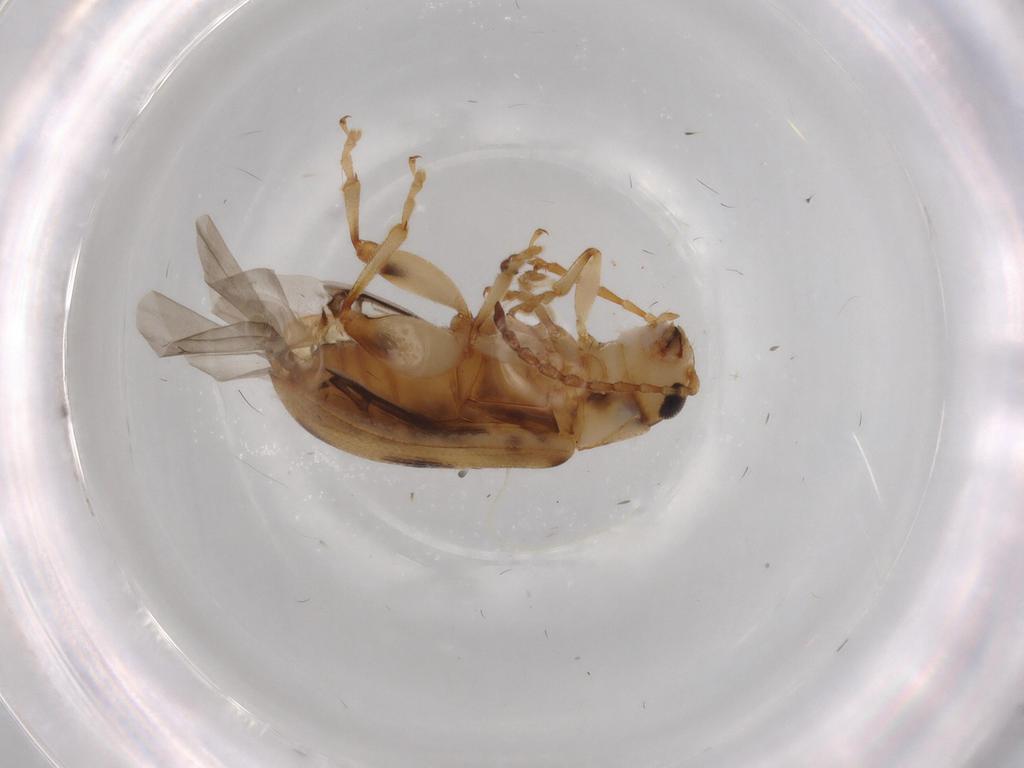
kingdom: Animalia
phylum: Arthropoda
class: Insecta
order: Coleoptera
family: Chrysomelidae
